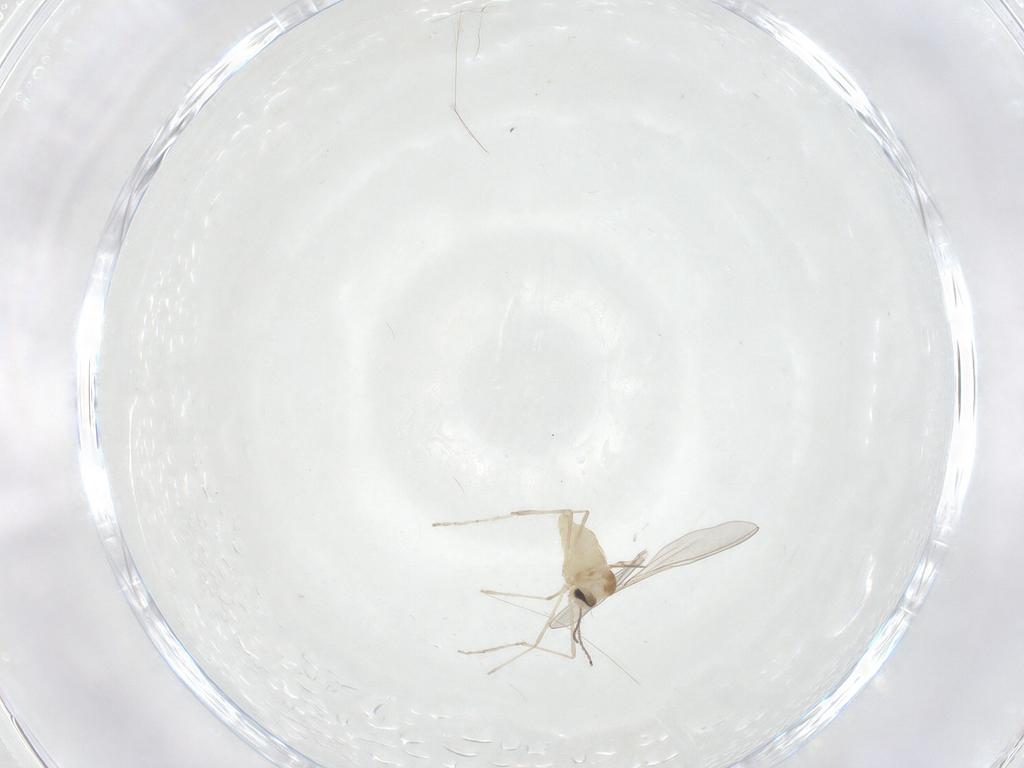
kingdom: Animalia
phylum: Arthropoda
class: Insecta
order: Diptera
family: Cecidomyiidae
